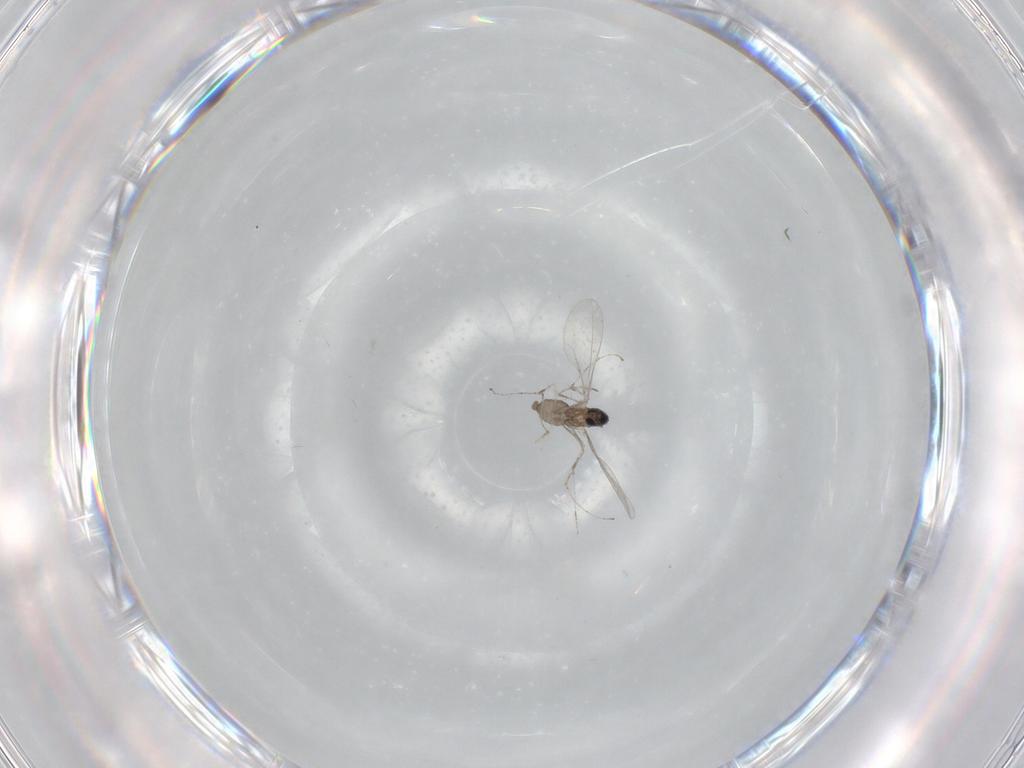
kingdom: Animalia
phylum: Arthropoda
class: Insecta
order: Diptera
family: Cecidomyiidae
